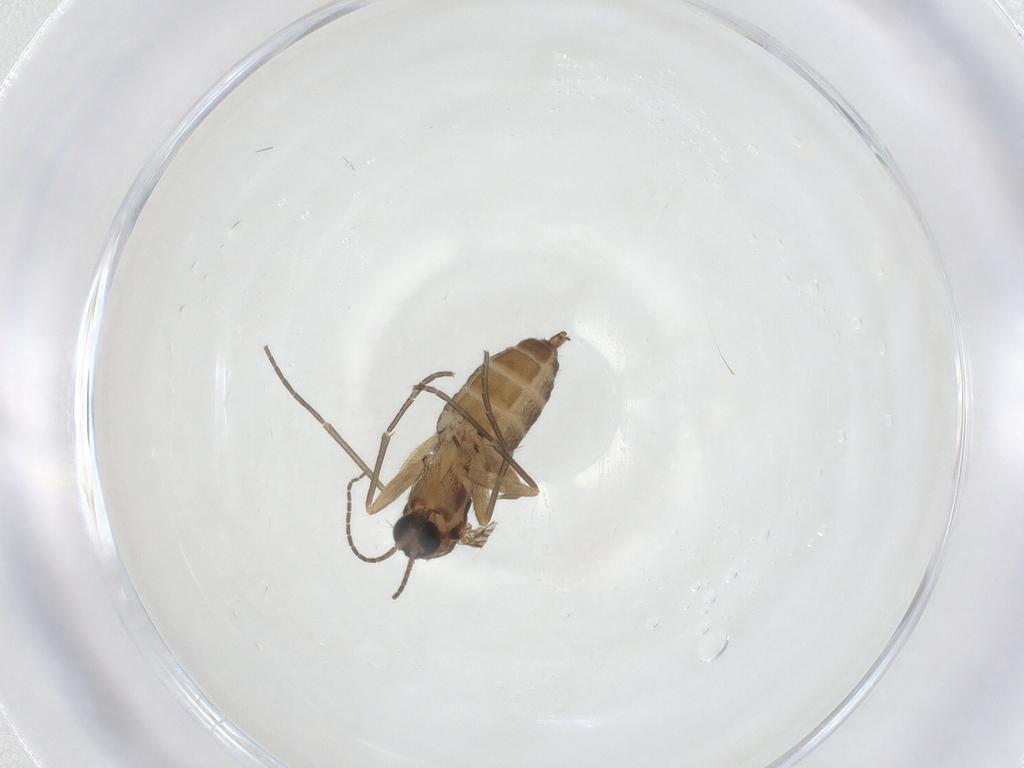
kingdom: Animalia
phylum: Arthropoda
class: Insecta
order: Diptera
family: Sciaridae
